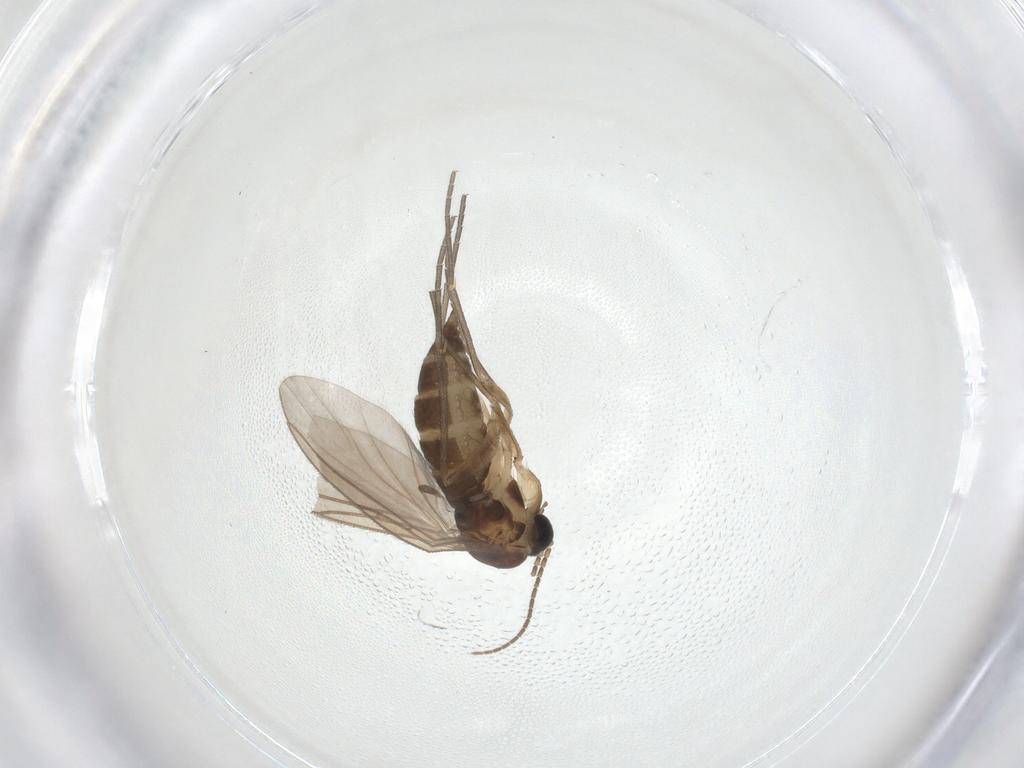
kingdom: Animalia
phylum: Arthropoda
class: Insecta
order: Diptera
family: Sciaridae
